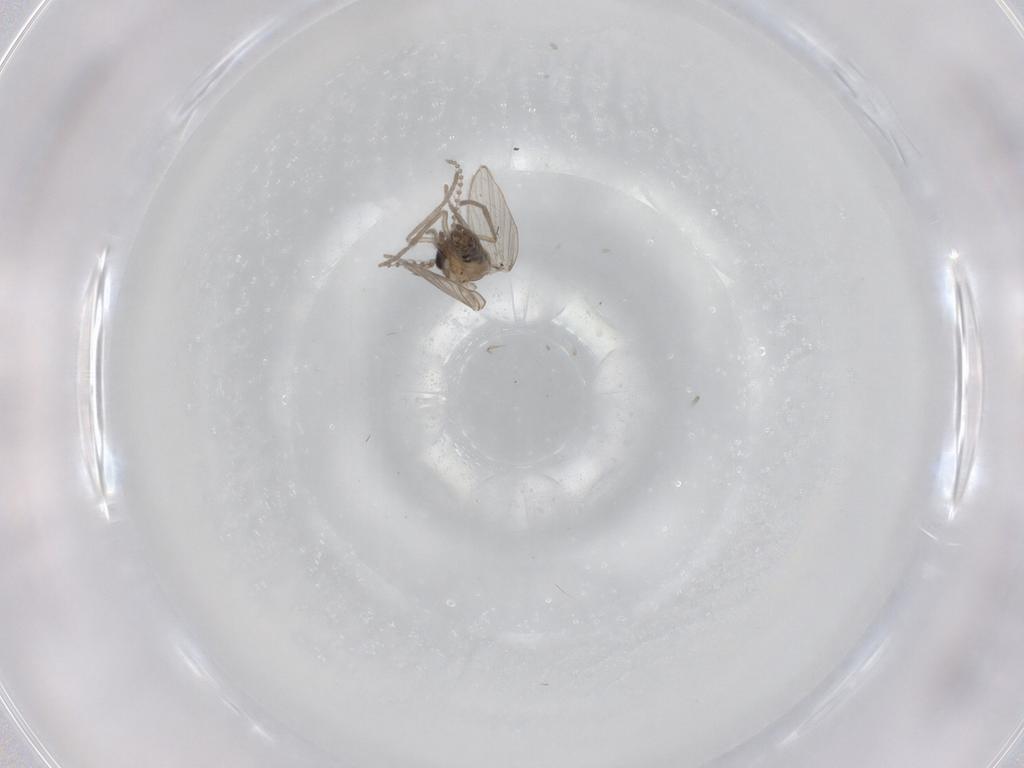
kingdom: Animalia
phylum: Arthropoda
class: Insecta
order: Diptera
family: Psychodidae
